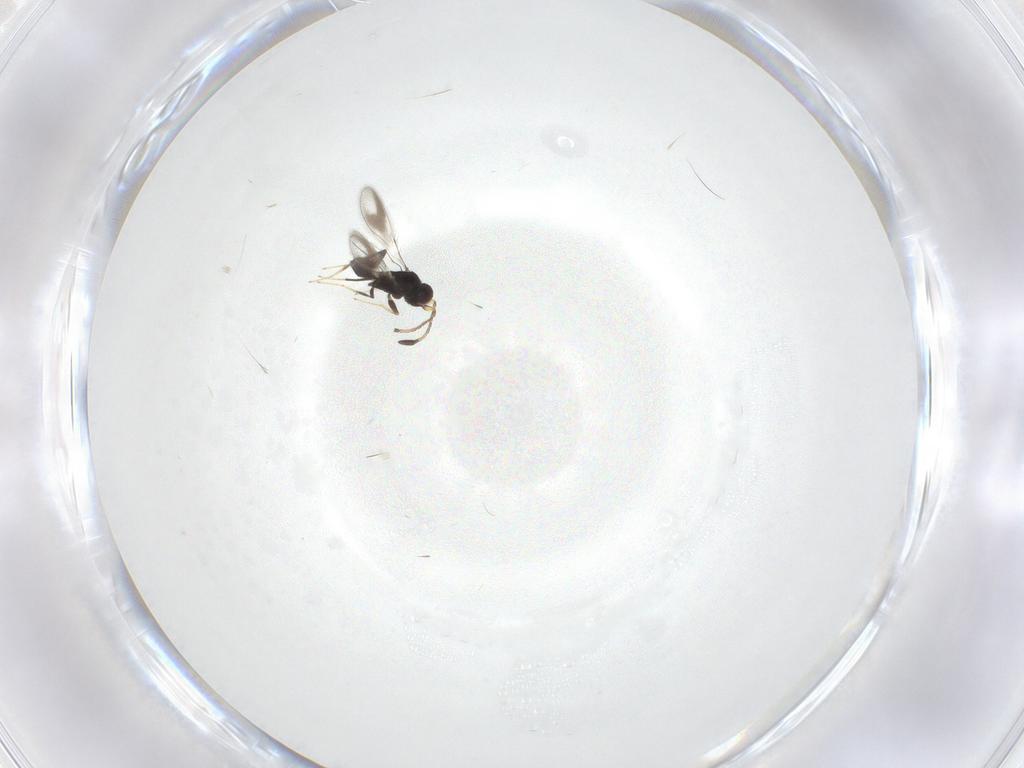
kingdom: Animalia
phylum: Arthropoda
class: Insecta
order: Hymenoptera
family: Mymaridae
